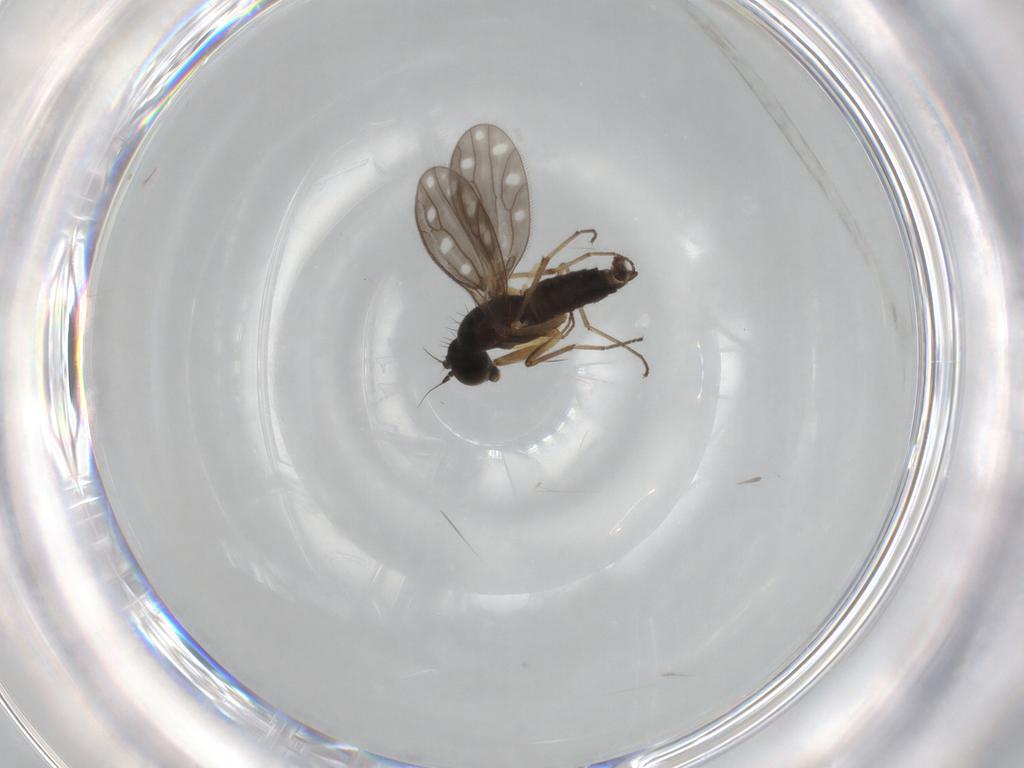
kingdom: Animalia
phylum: Arthropoda
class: Insecta
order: Diptera
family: Empididae
